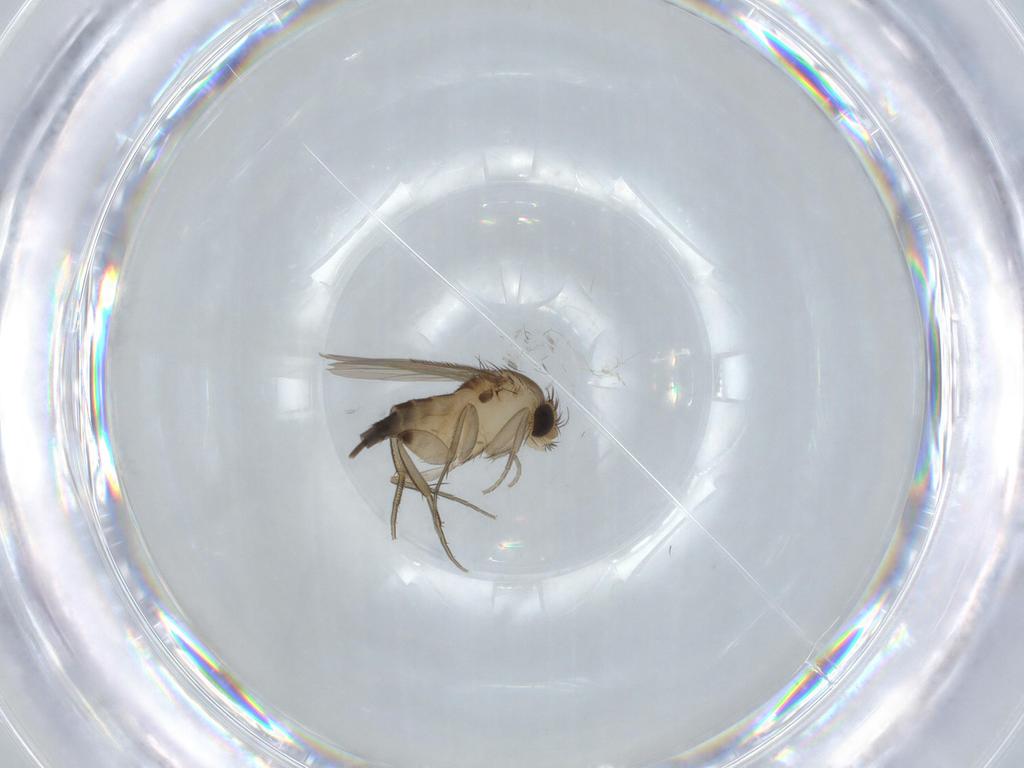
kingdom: Animalia
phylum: Arthropoda
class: Insecta
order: Diptera
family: Phoridae
